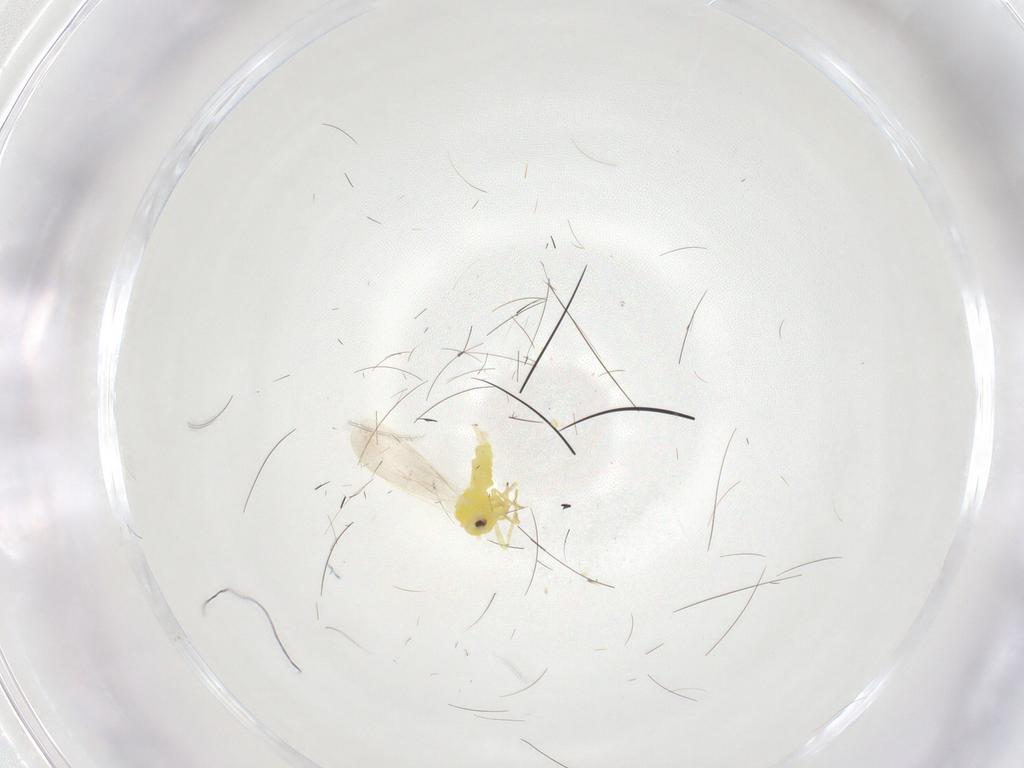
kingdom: Animalia
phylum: Arthropoda
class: Insecta
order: Hemiptera
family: Aleyrodidae
